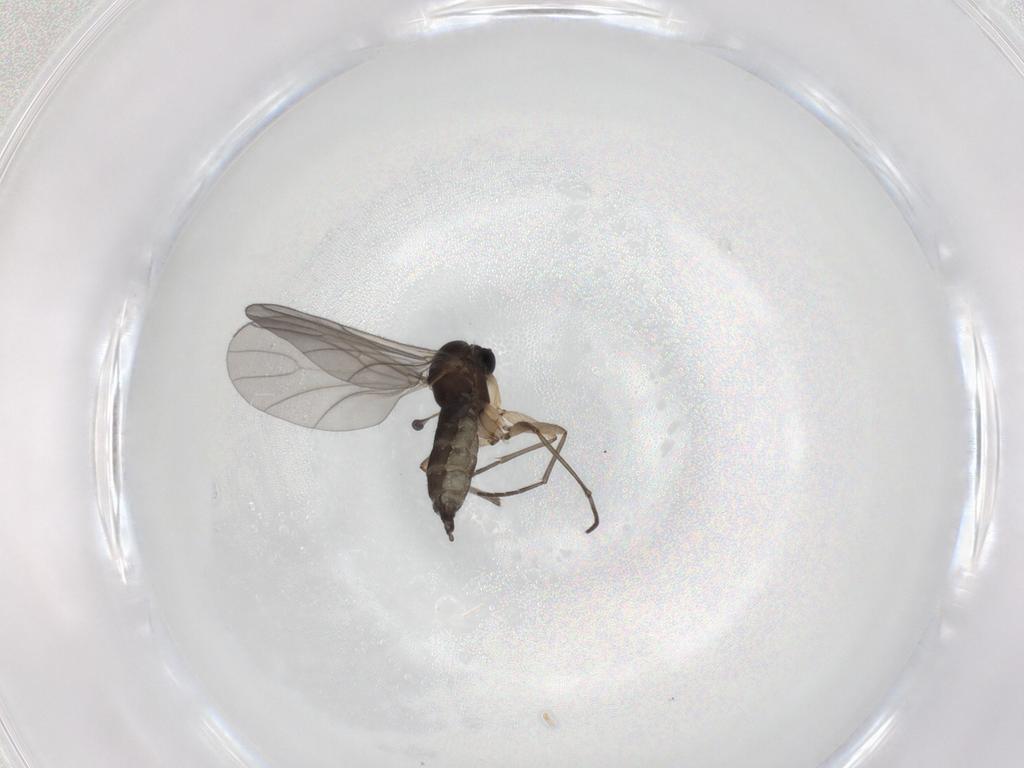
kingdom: Animalia
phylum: Arthropoda
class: Insecta
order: Diptera
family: Sciaridae
